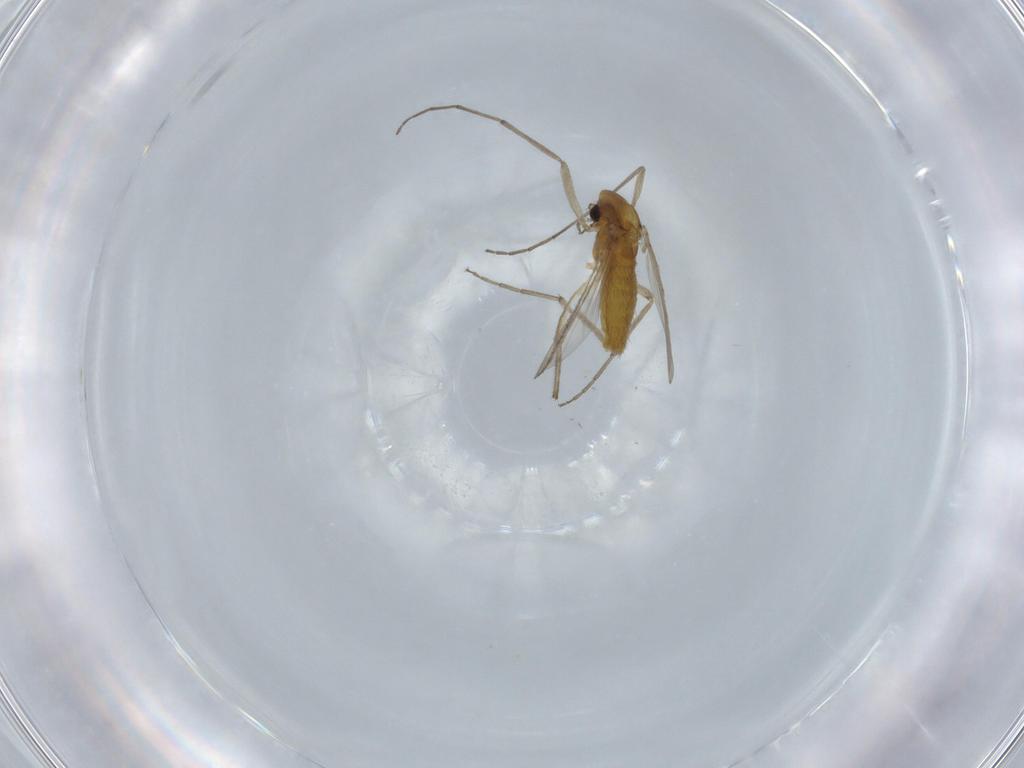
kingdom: Animalia
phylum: Arthropoda
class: Insecta
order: Diptera
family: Chironomidae
